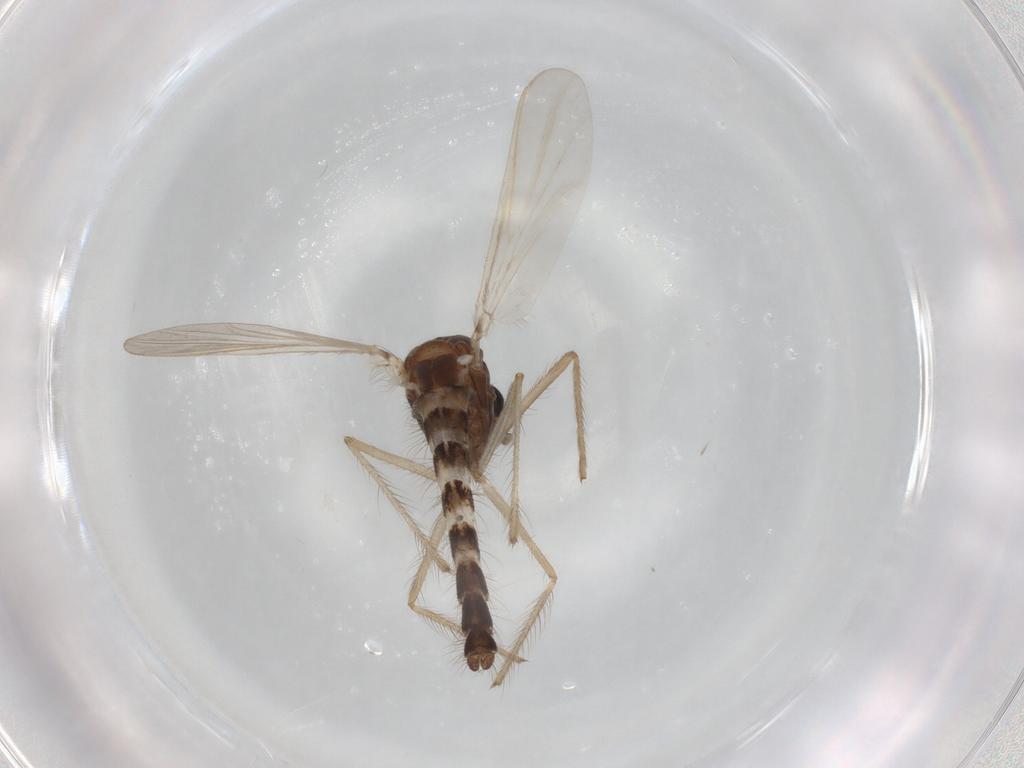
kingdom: Animalia
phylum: Arthropoda
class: Insecta
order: Diptera
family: Chironomidae
